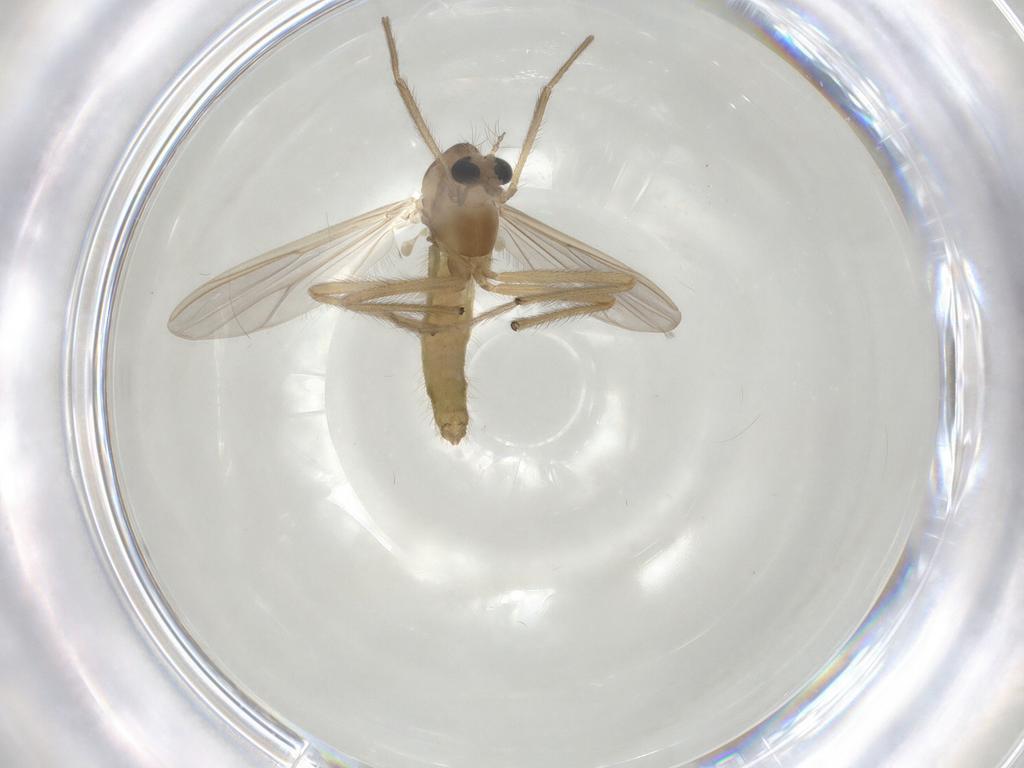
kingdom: Animalia
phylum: Arthropoda
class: Insecta
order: Diptera
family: Chironomidae
